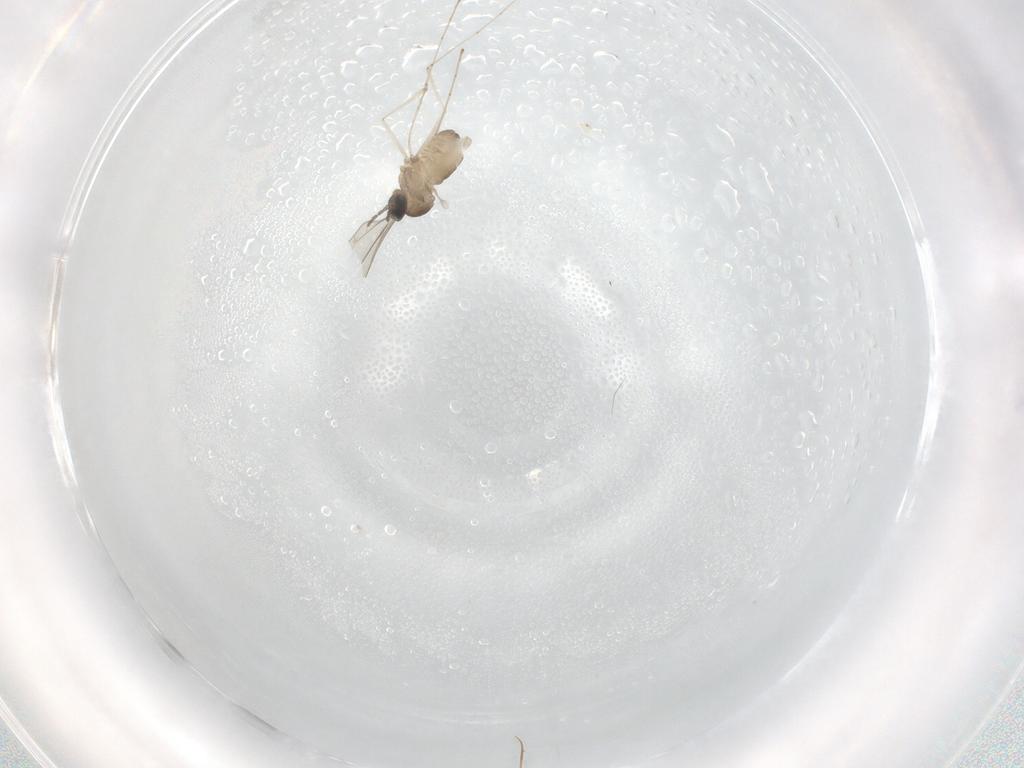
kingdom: Animalia
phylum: Arthropoda
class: Insecta
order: Diptera
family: Cecidomyiidae
